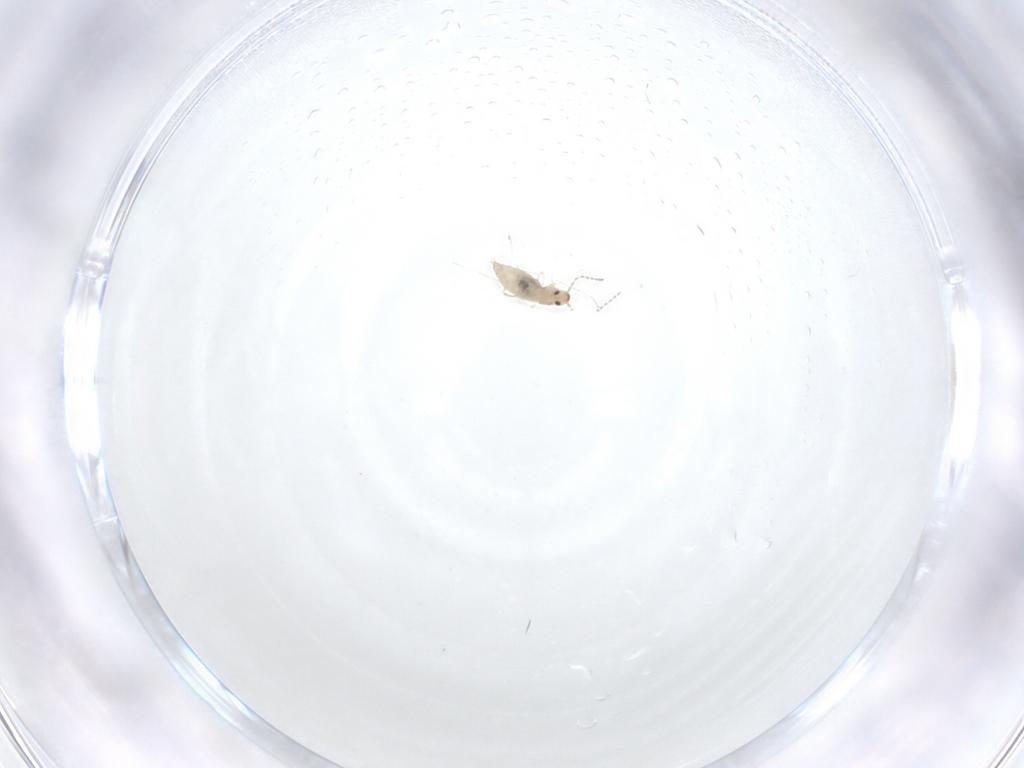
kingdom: Animalia
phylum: Arthropoda
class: Insecta
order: Diptera
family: Cecidomyiidae
